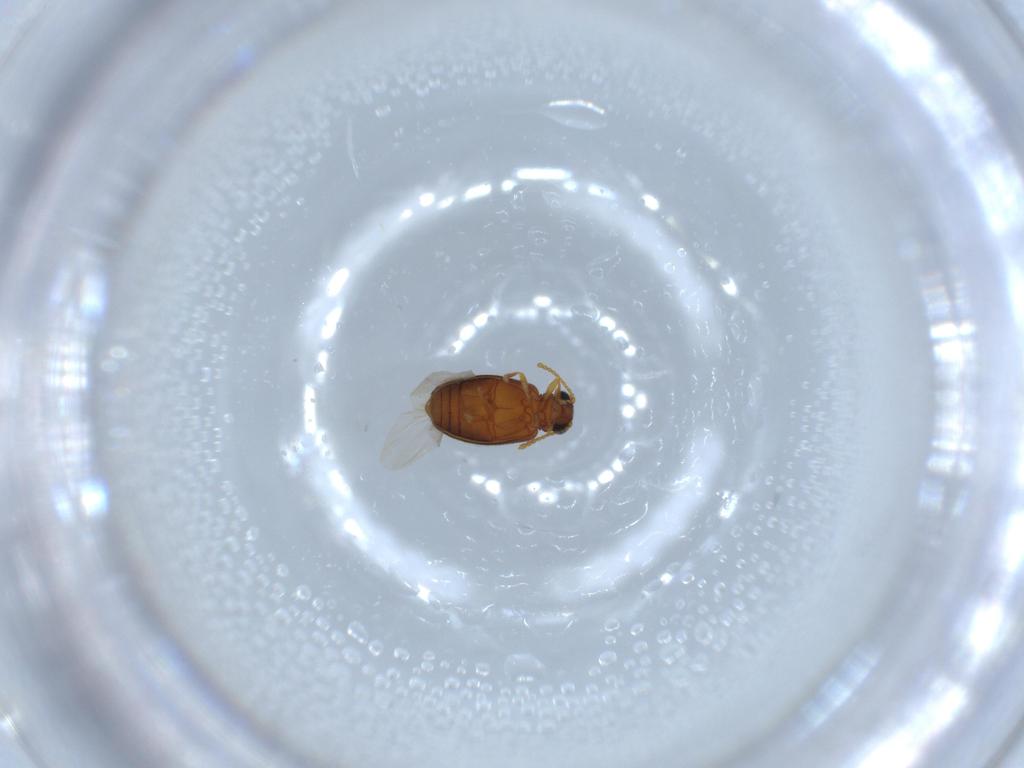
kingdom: Animalia
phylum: Arthropoda
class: Insecta
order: Coleoptera
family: Aderidae
